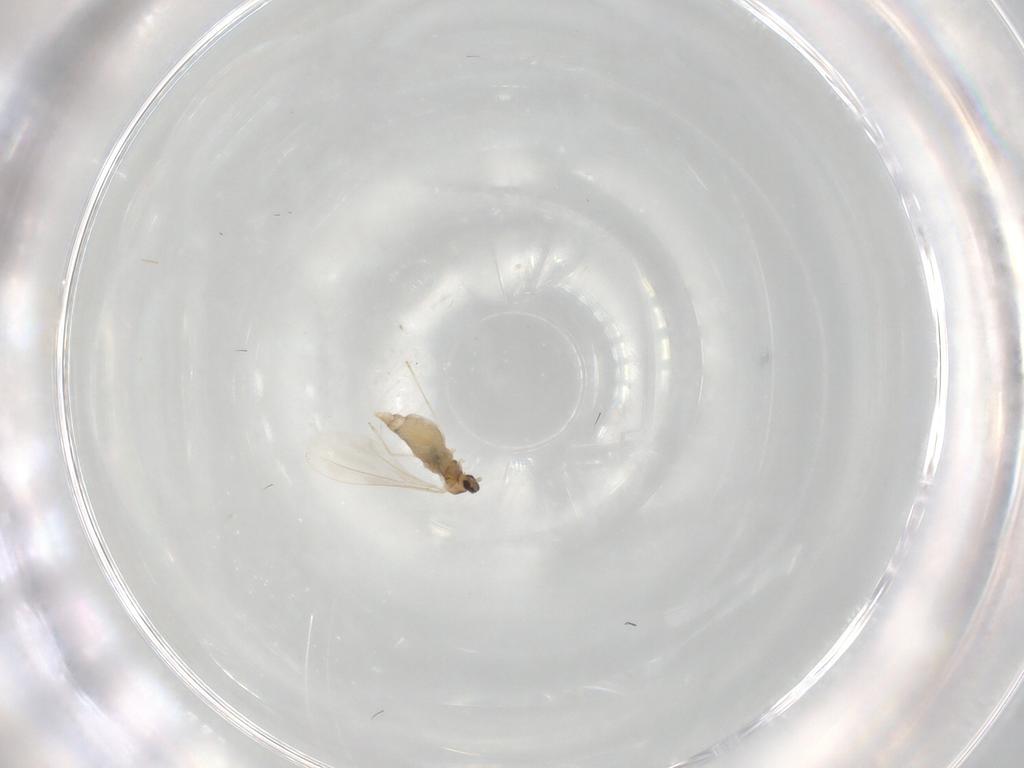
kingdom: Animalia
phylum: Arthropoda
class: Insecta
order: Diptera
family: Cecidomyiidae
